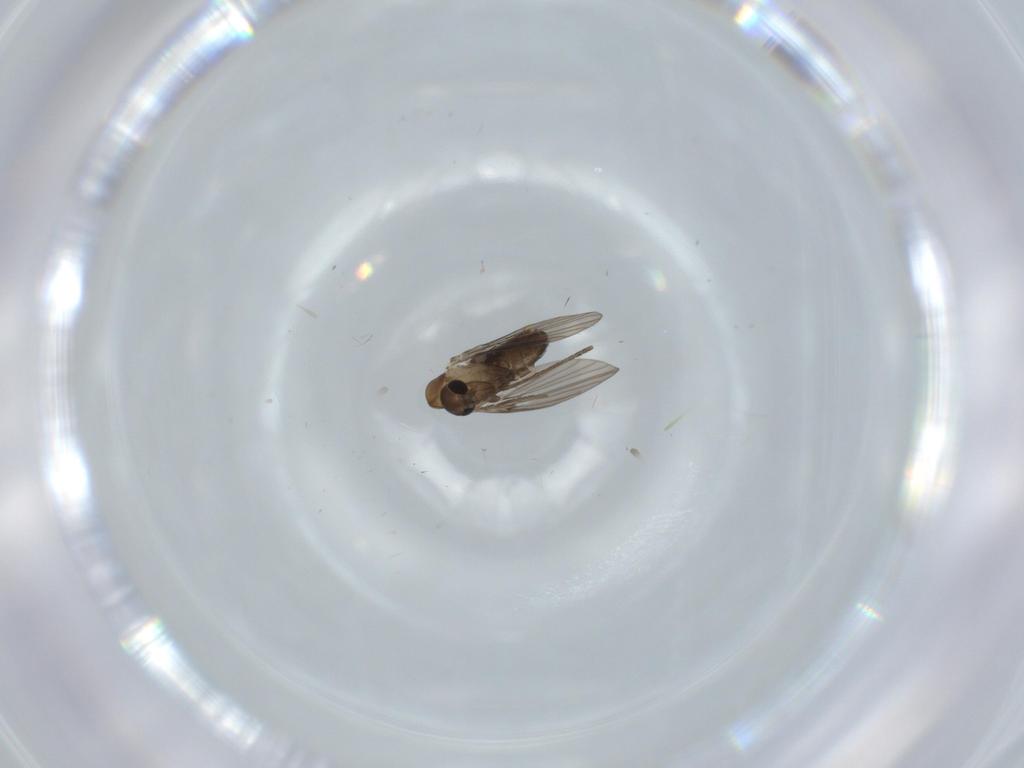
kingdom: Animalia
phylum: Arthropoda
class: Insecta
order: Diptera
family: Psychodidae
